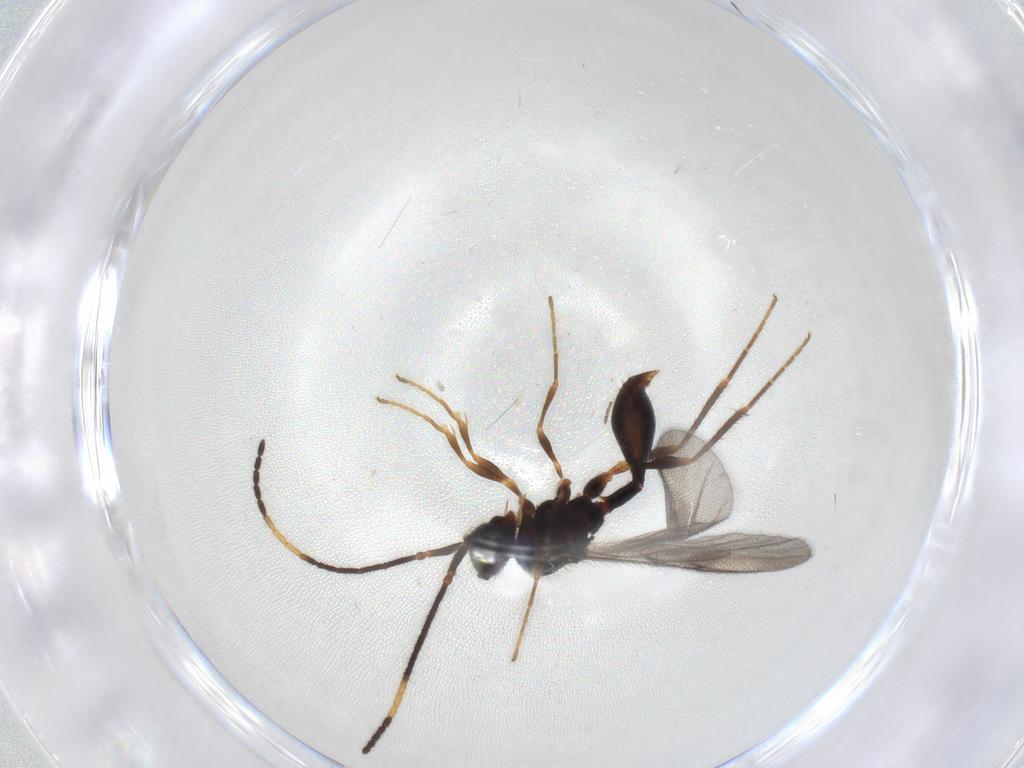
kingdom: Animalia
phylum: Arthropoda
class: Insecta
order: Hymenoptera
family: Diapriidae
